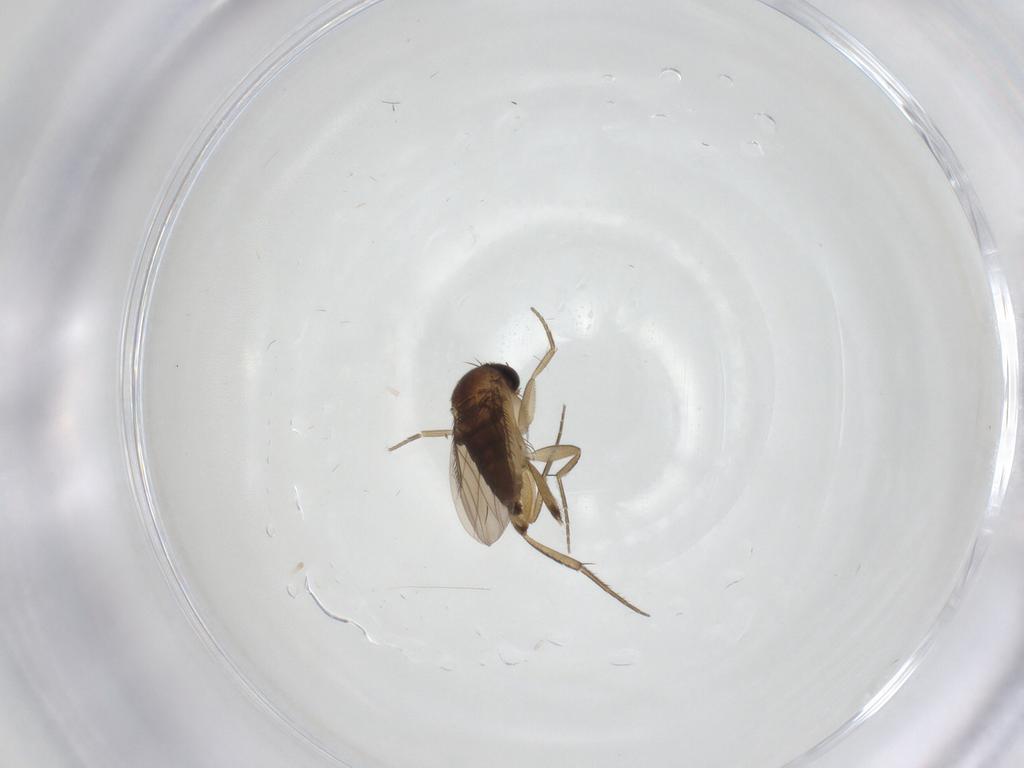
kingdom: Animalia
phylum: Arthropoda
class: Insecta
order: Diptera
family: Phoridae
